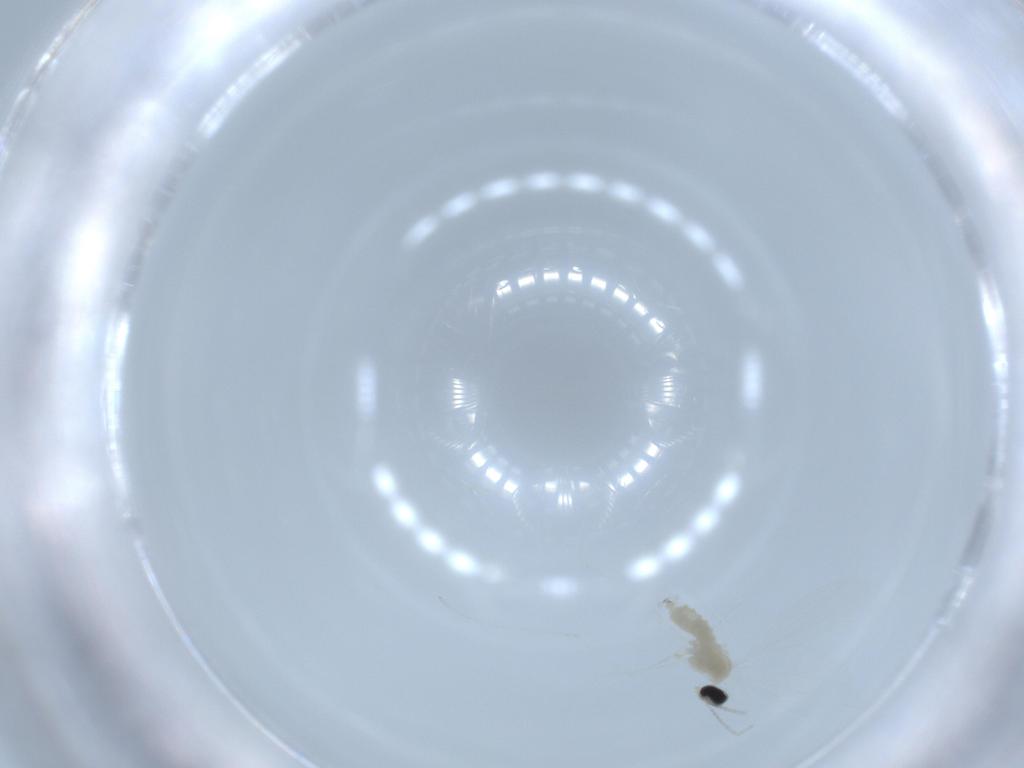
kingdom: Animalia
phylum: Arthropoda
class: Insecta
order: Diptera
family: Cecidomyiidae
